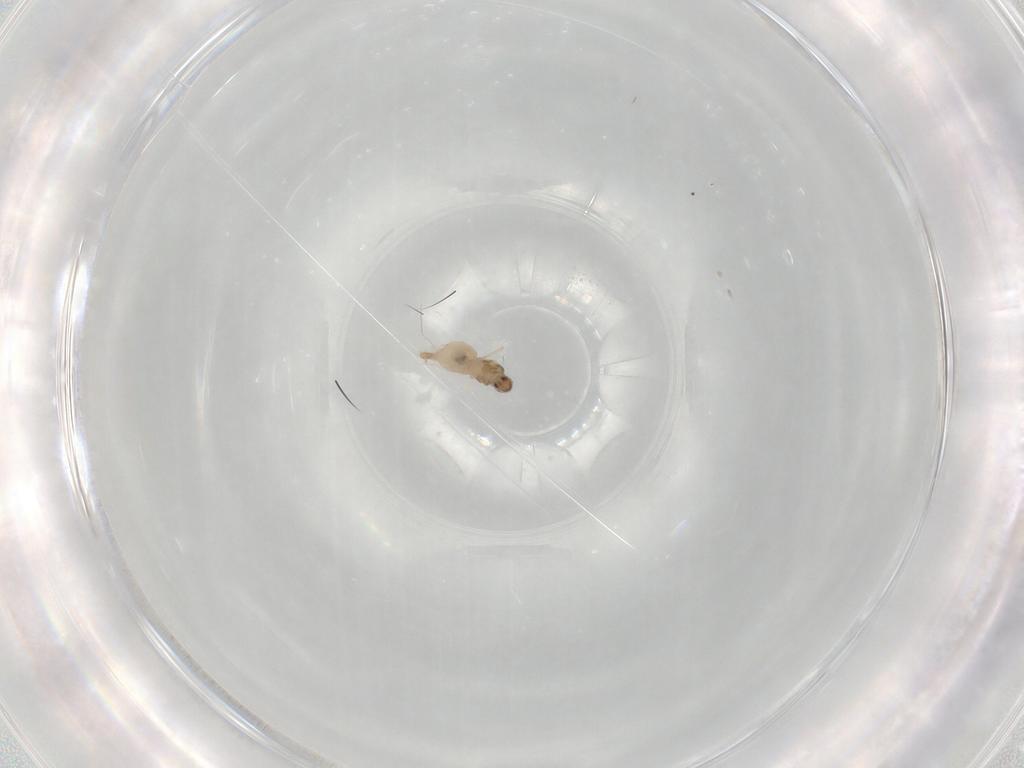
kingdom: Animalia
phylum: Arthropoda
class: Insecta
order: Diptera
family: Cecidomyiidae
